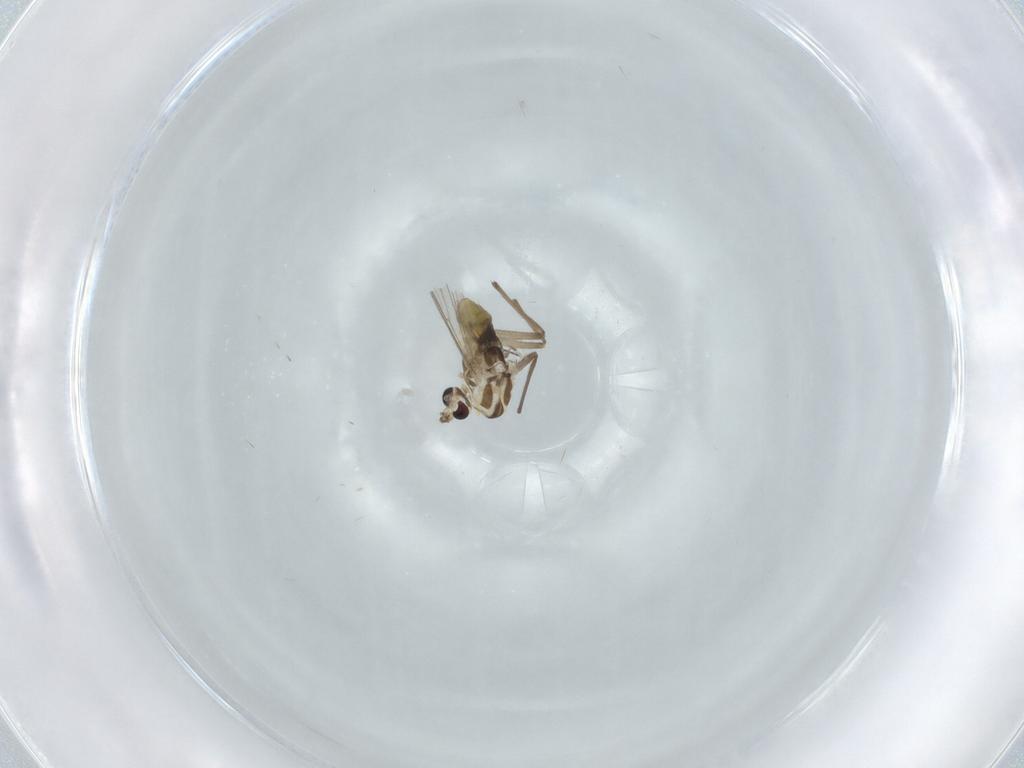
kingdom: Animalia
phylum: Arthropoda
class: Insecta
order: Diptera
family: Chironomidae
